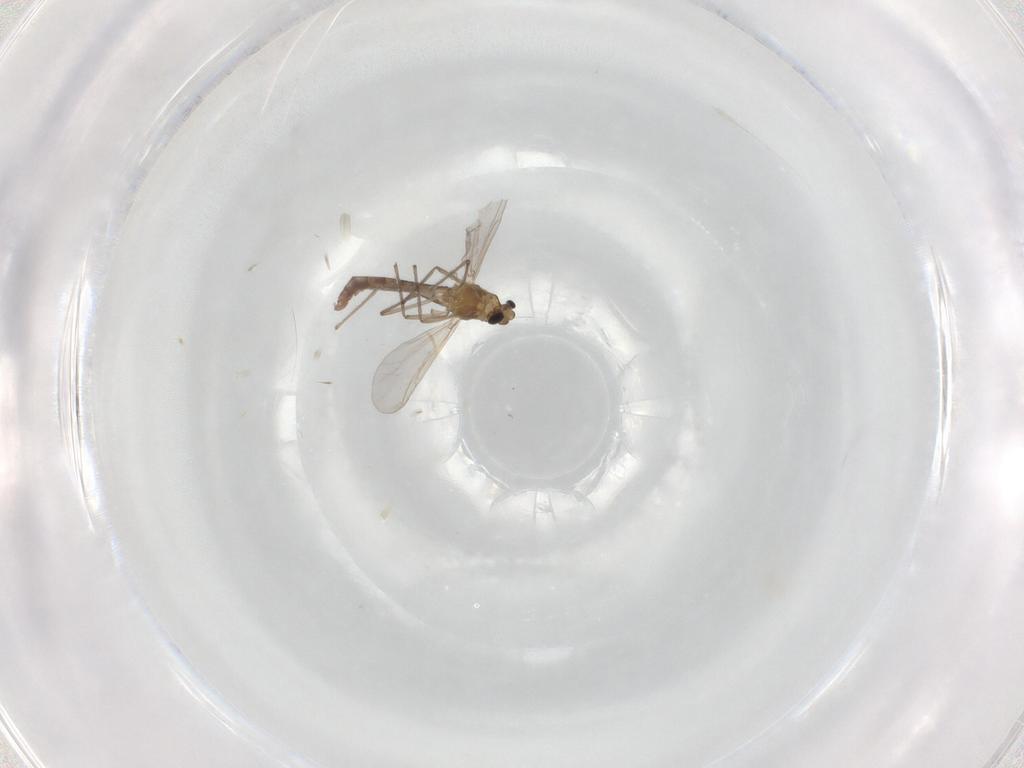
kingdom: Animalia
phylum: Arthropoda
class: Insecta
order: Diptera
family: Chironomidae
